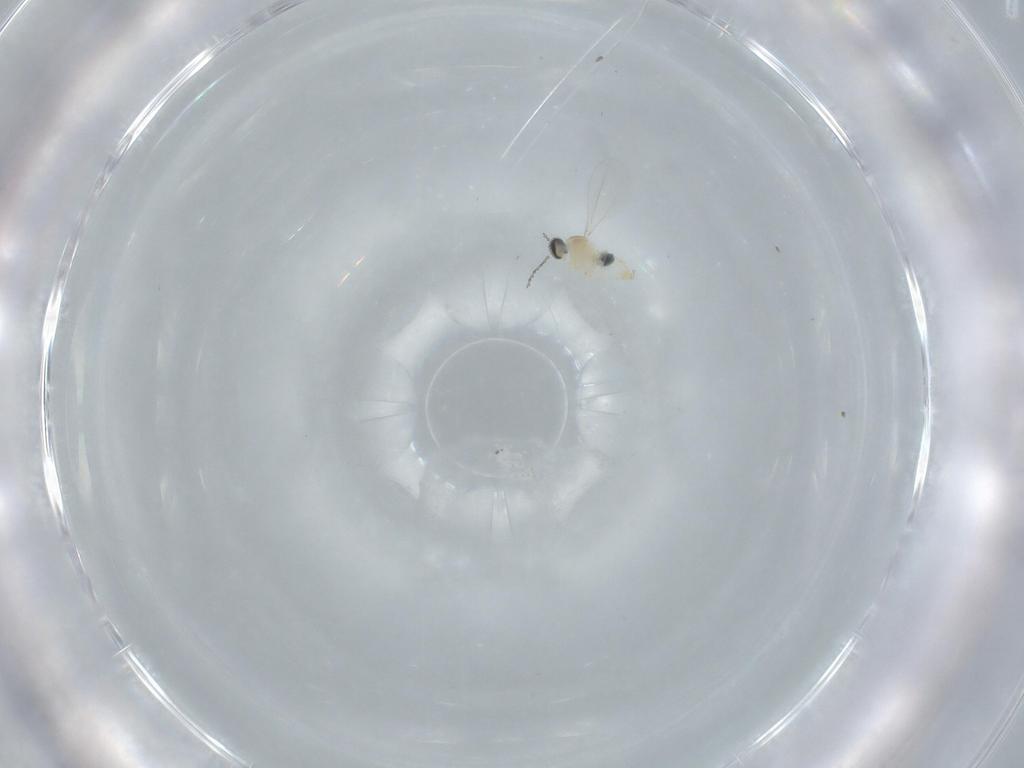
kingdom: Animalia
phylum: Arthropoda
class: Insecta
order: Diptera
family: Cecidomyiidae
